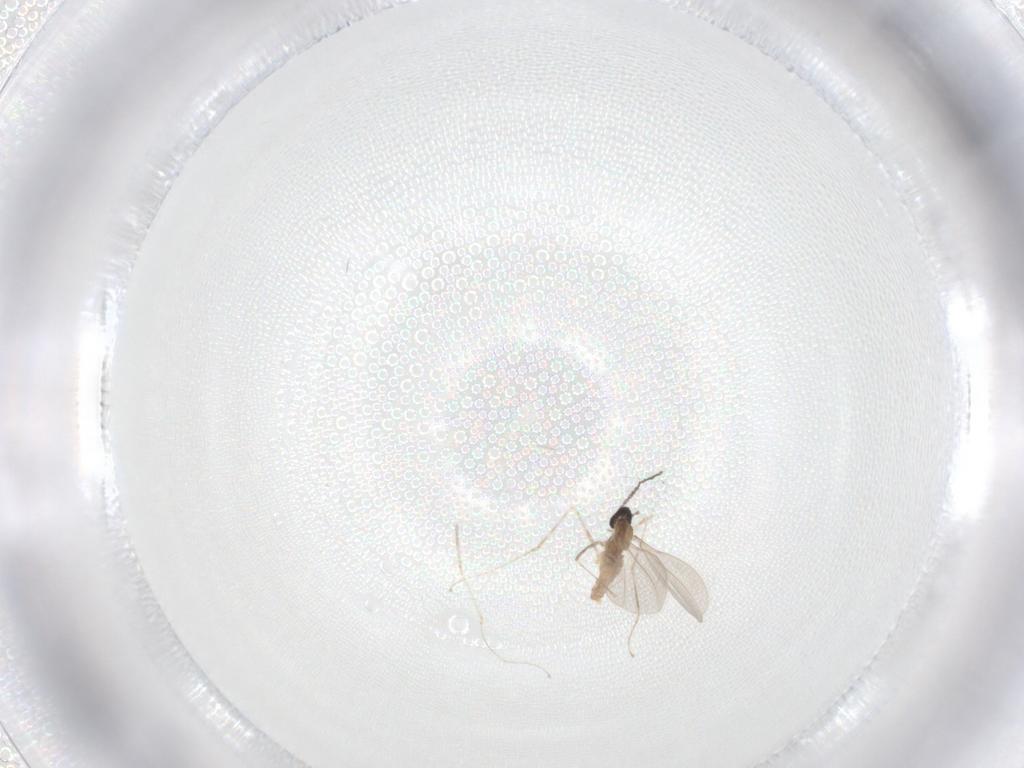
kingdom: Animalia
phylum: Arthropoda
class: Insecta
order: Diptera
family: Cecidomyiidae
